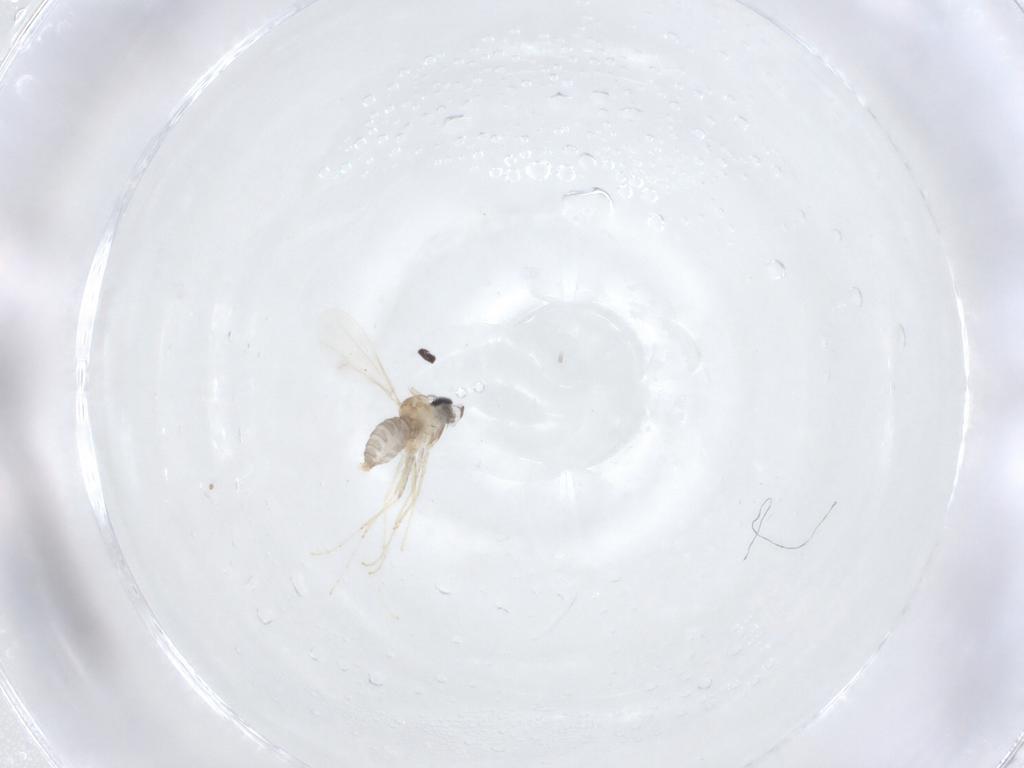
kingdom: Animalia
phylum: Arthropoda
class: Insecta
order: Diptera
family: Cecidomyiidae
